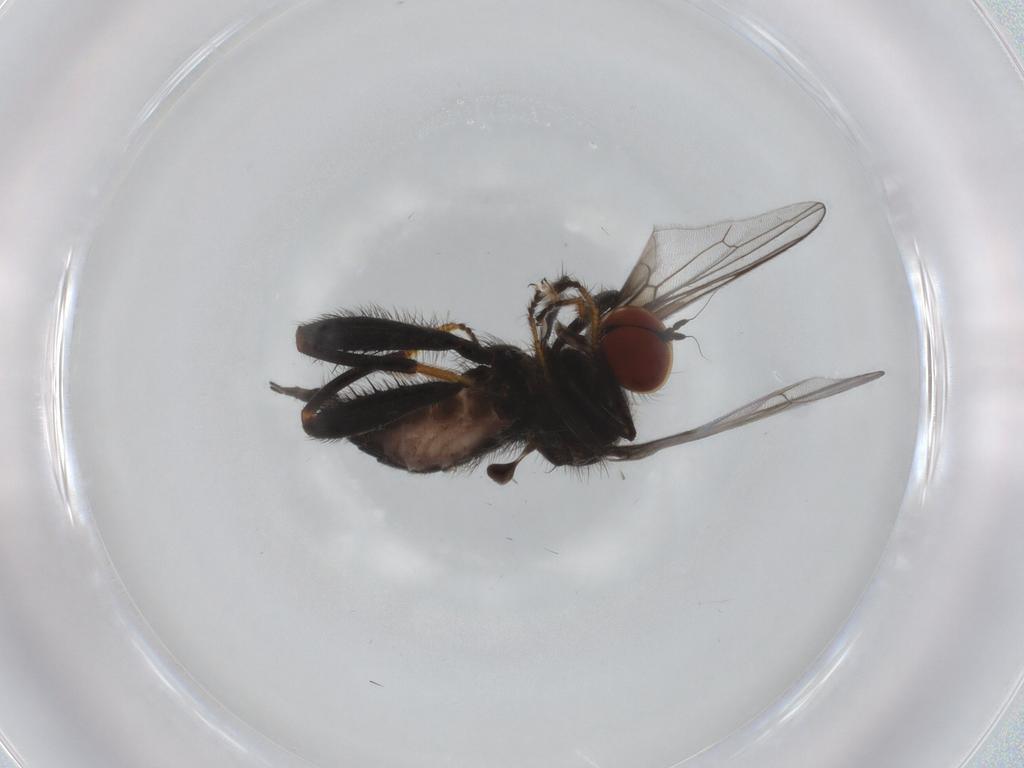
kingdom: Animalia
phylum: Arthropoda
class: Insecta
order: Diptera
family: Hybotidae
